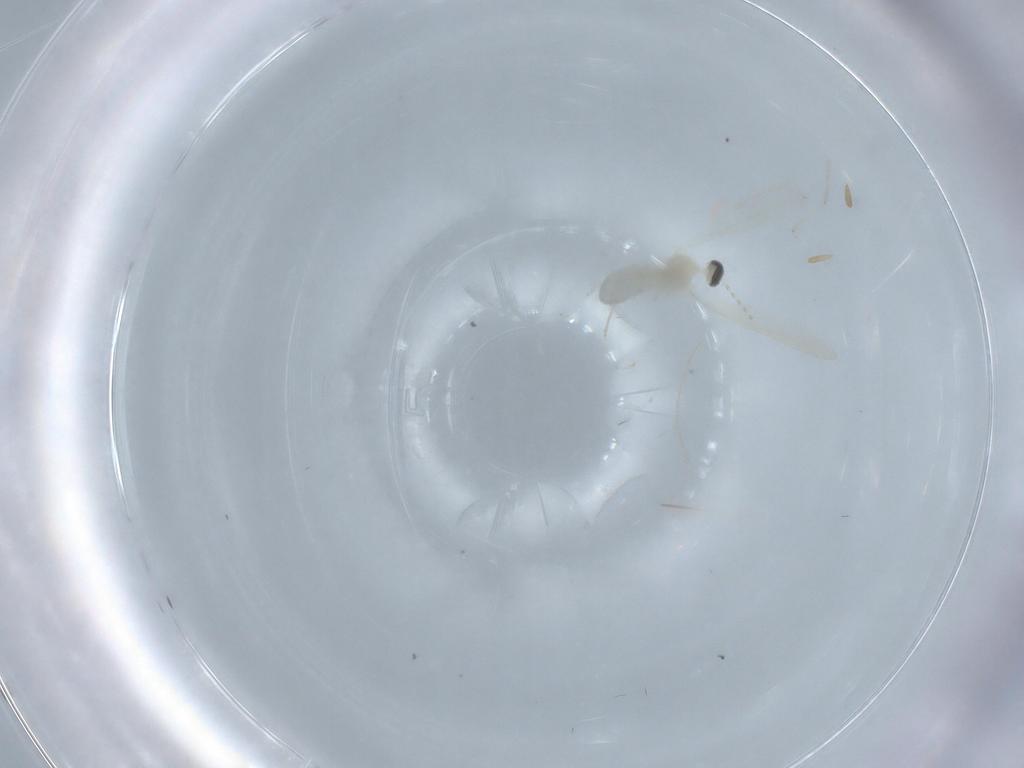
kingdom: Animalia
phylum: Arthropoda
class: Insecta
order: Diptera
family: Cecidomyiidae
